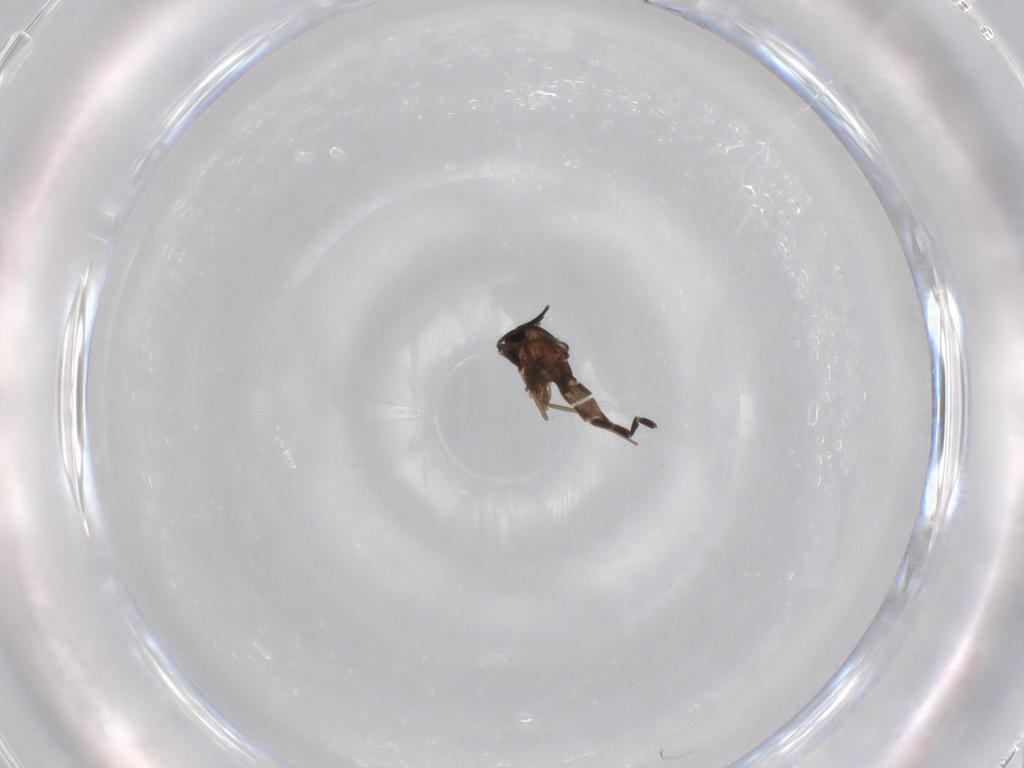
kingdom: Animalia
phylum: Arthropoda
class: Insecta
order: Diptera
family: Chironomidae
